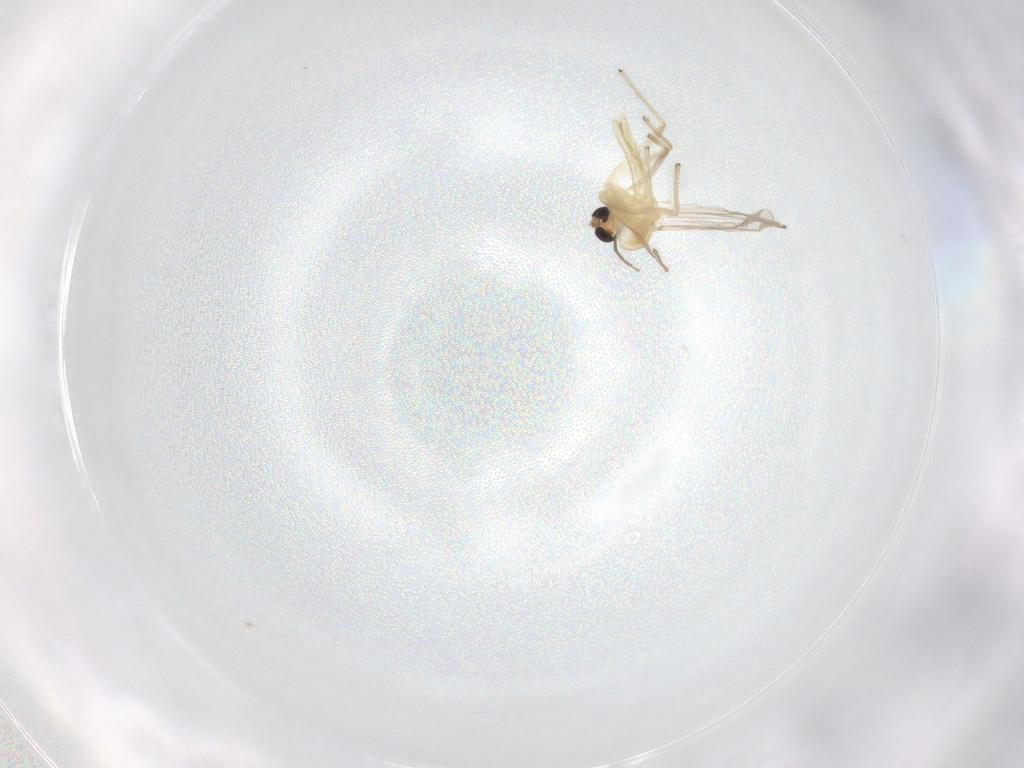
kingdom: Animalia
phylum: Arthropoda
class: Insecta
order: Diptera
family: Chironomidae
